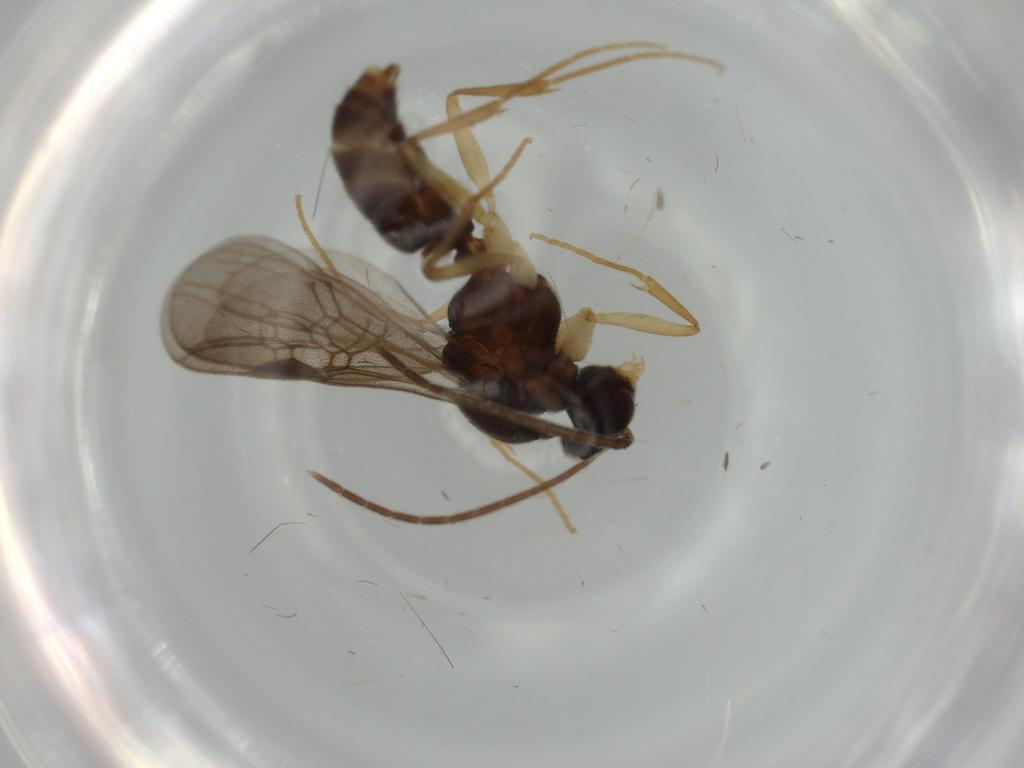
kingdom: Animalia
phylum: Arthropoda
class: Insecta
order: Hymenoptera
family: Formicidae
